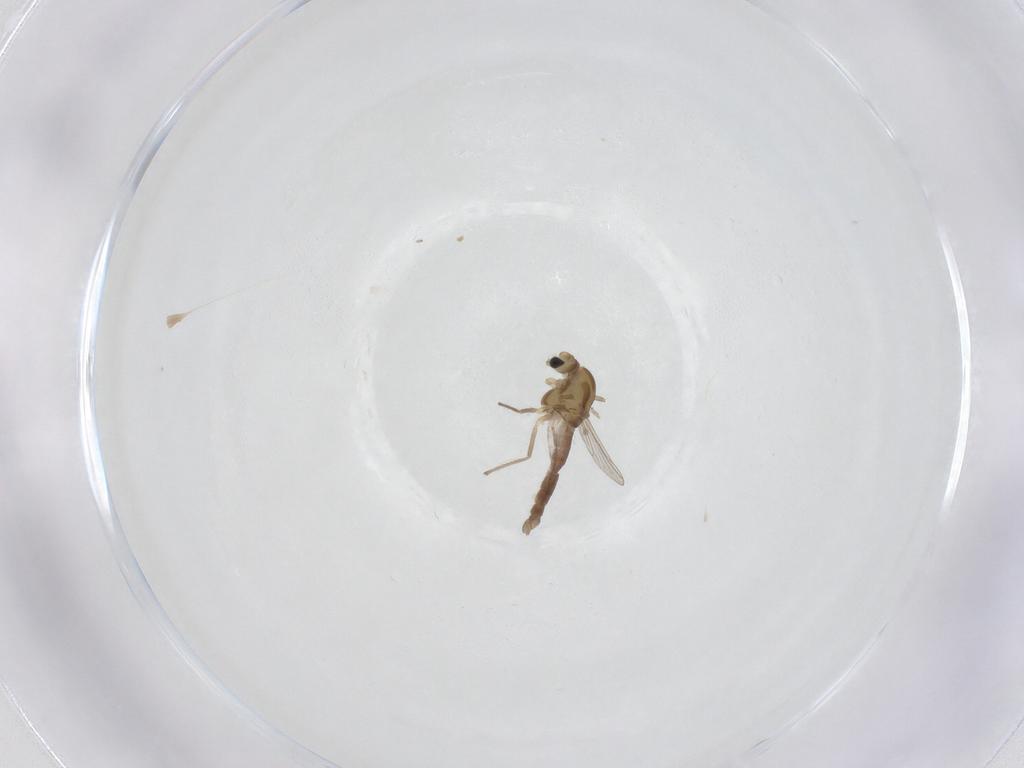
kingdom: Animalia
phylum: Arthropoda
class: Insecta
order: Diptera
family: Chironomidae
